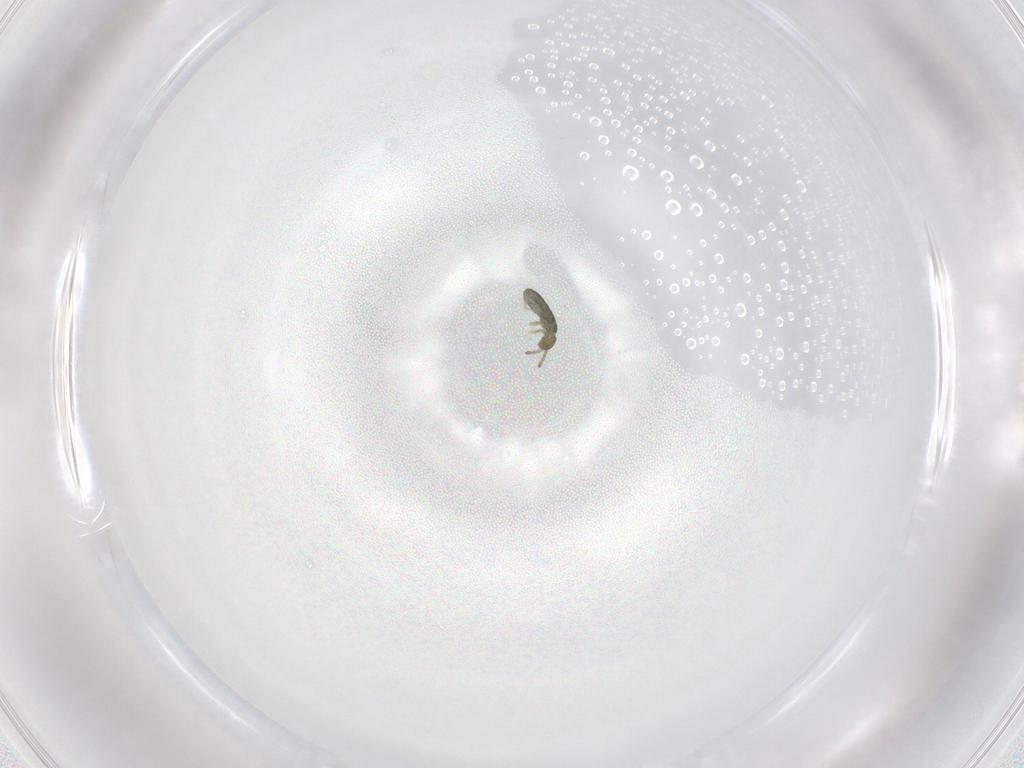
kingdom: Animalia
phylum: Arthropoda
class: Collembola
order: Entomobryomorpha
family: Isotomidae
